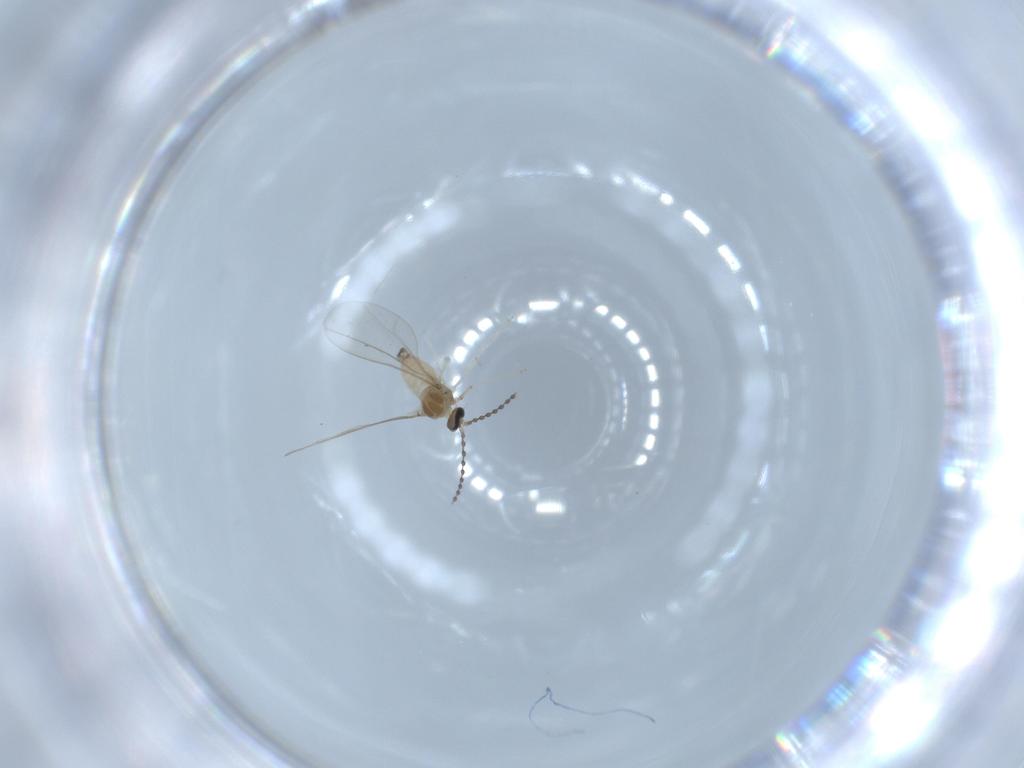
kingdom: Animalia
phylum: Arthropoda
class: Insecta
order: Diptera
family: Cecidomyiidae
